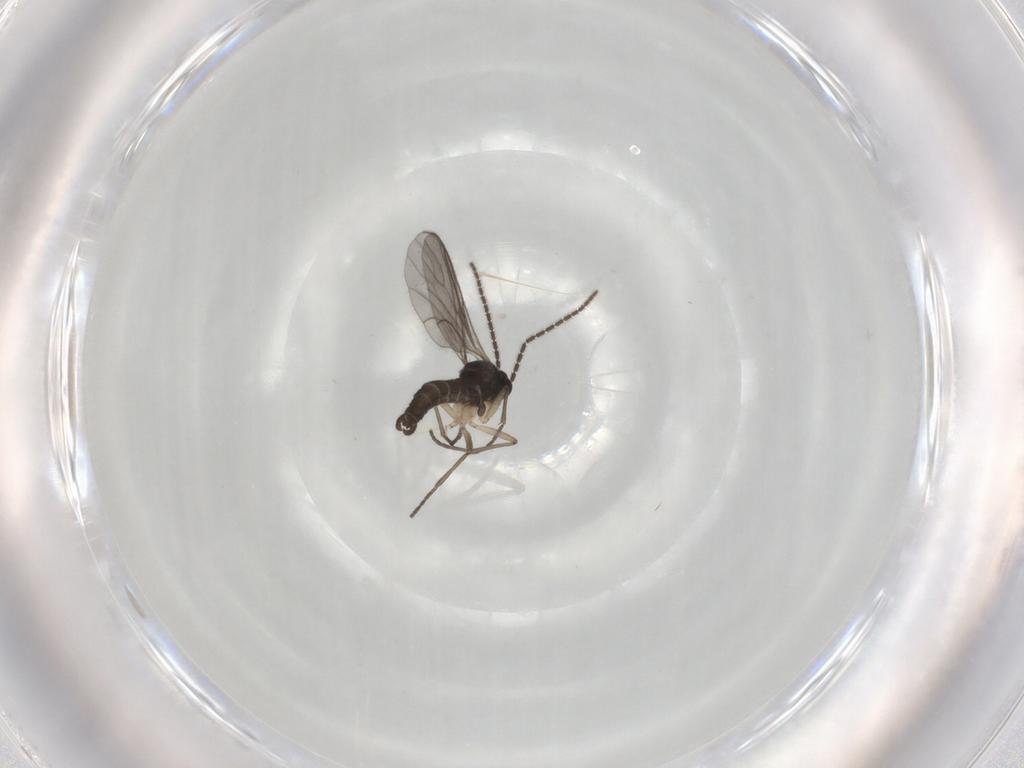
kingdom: Animalia
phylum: Arthropoda
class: Insecta
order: Diptera
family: Sciaridae
